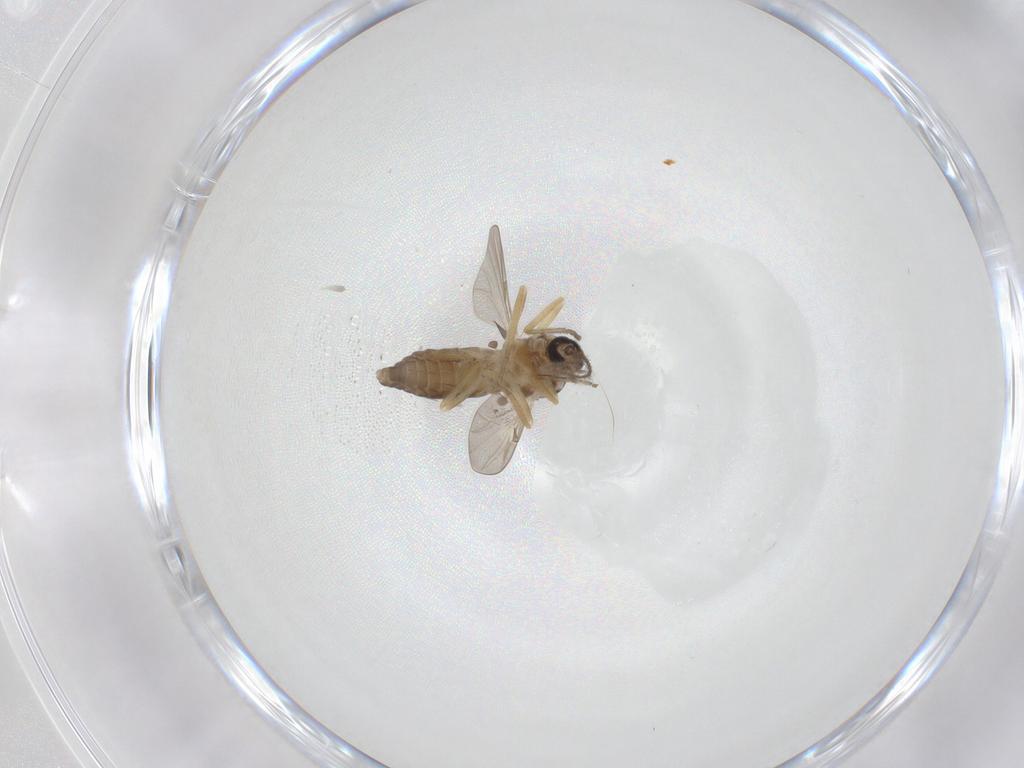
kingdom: Animalia
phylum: Arthropoda
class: Insecta
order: Diptera
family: Ceratopogonidae
